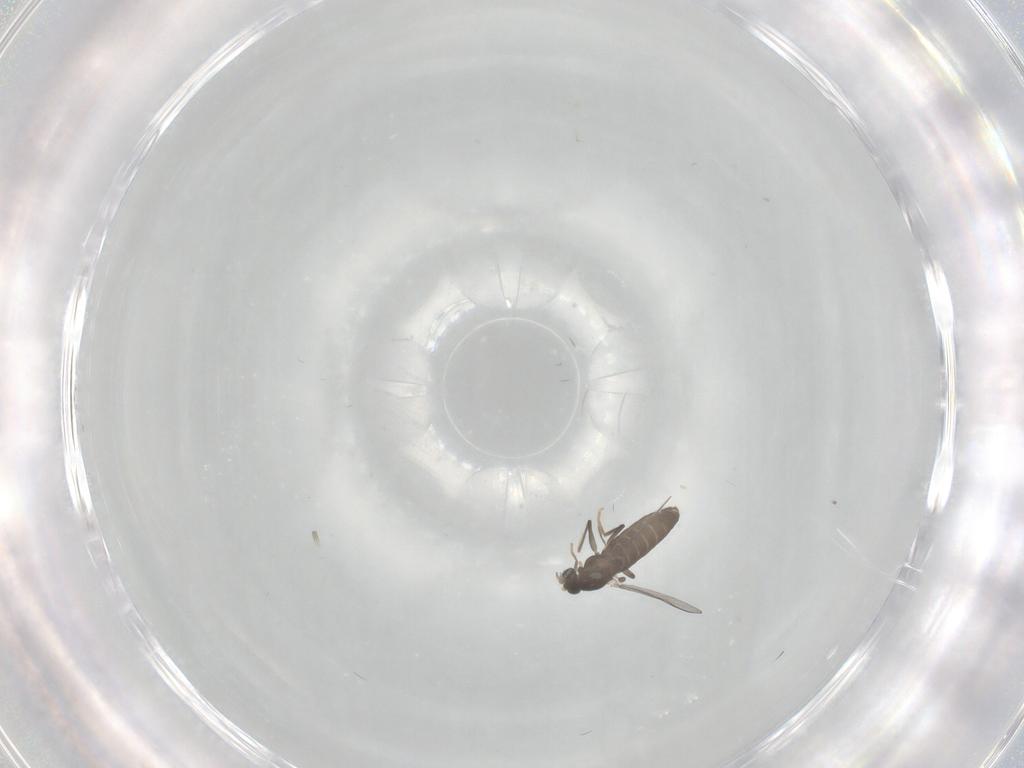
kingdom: Animalia
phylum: Arthropoda
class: Insecta
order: Diptera
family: Chironomidae
